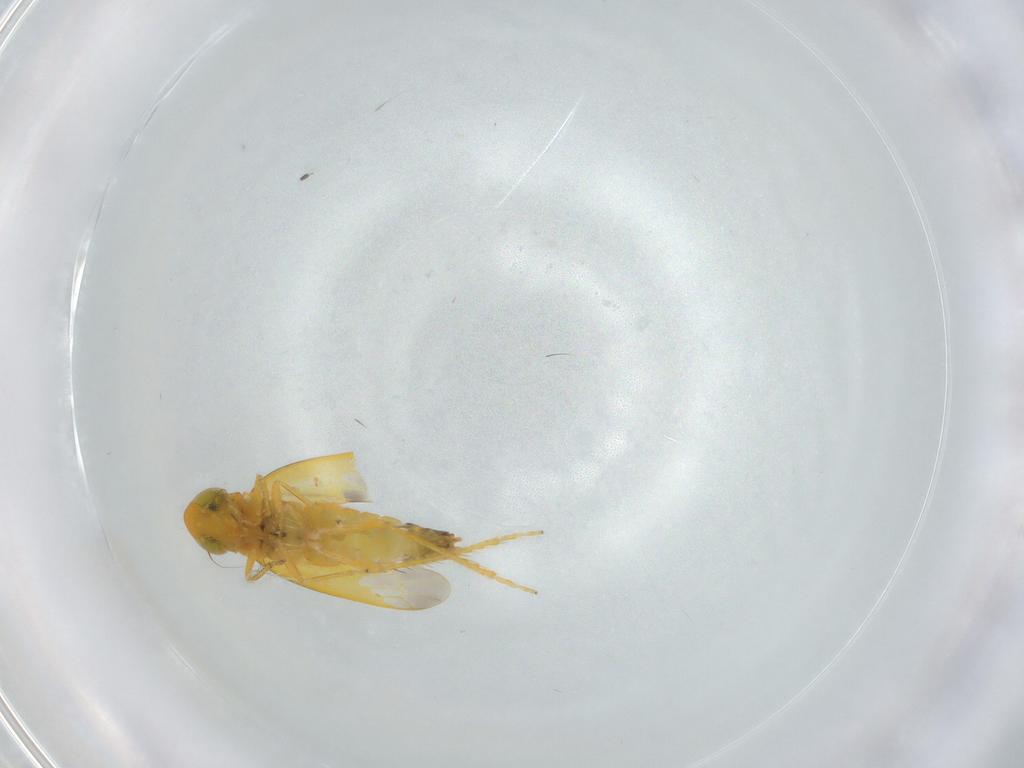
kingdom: Animalia
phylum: Arthropoda
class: Insecta
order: Hemiptera
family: Cicadellidae
